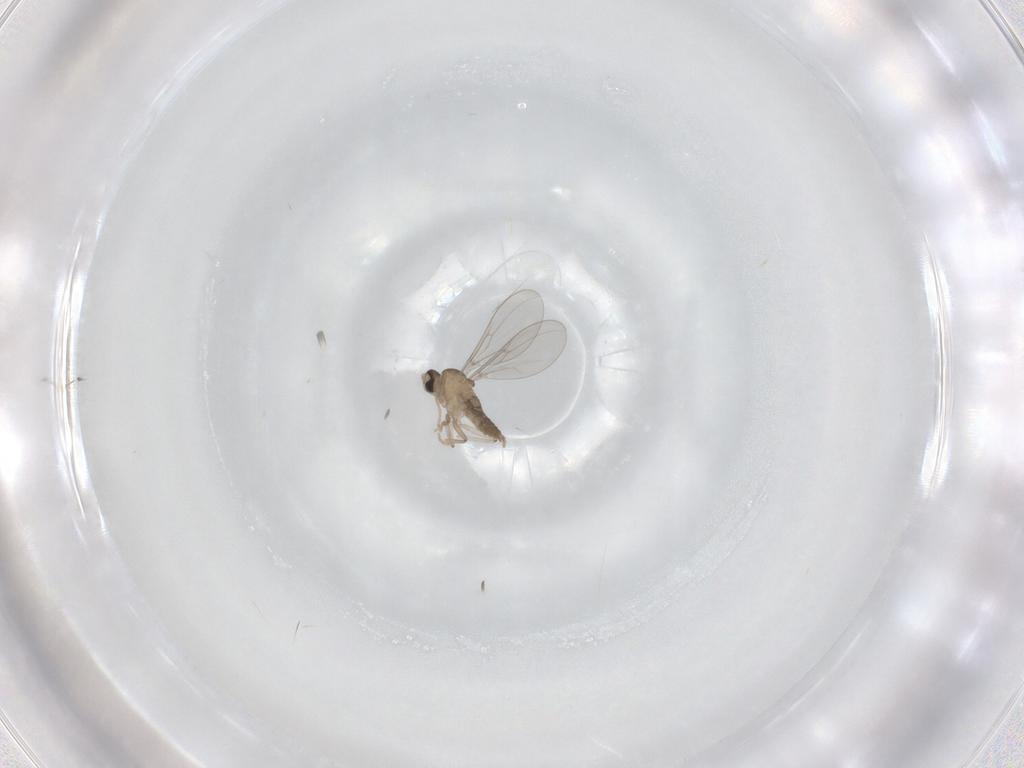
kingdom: Animalia
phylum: Arthropoda
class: Insecta
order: Diptera
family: Cecidomyiidae
